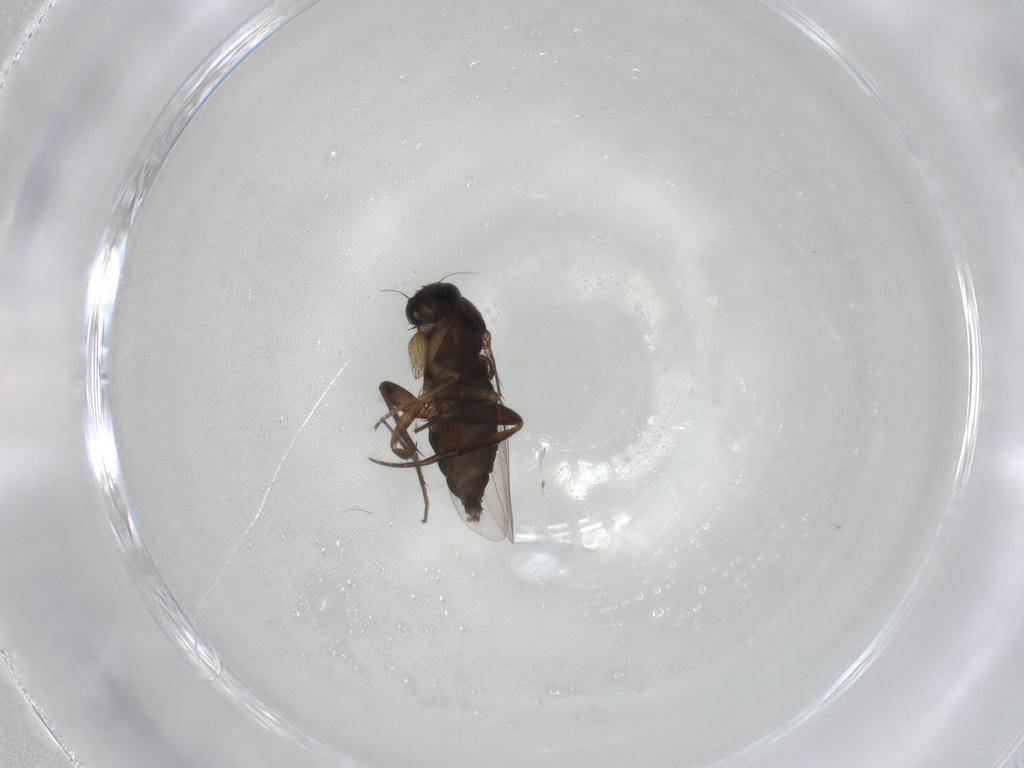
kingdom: Animalia
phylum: Arthropoda
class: Insecta
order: Diptera
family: Phoridae
